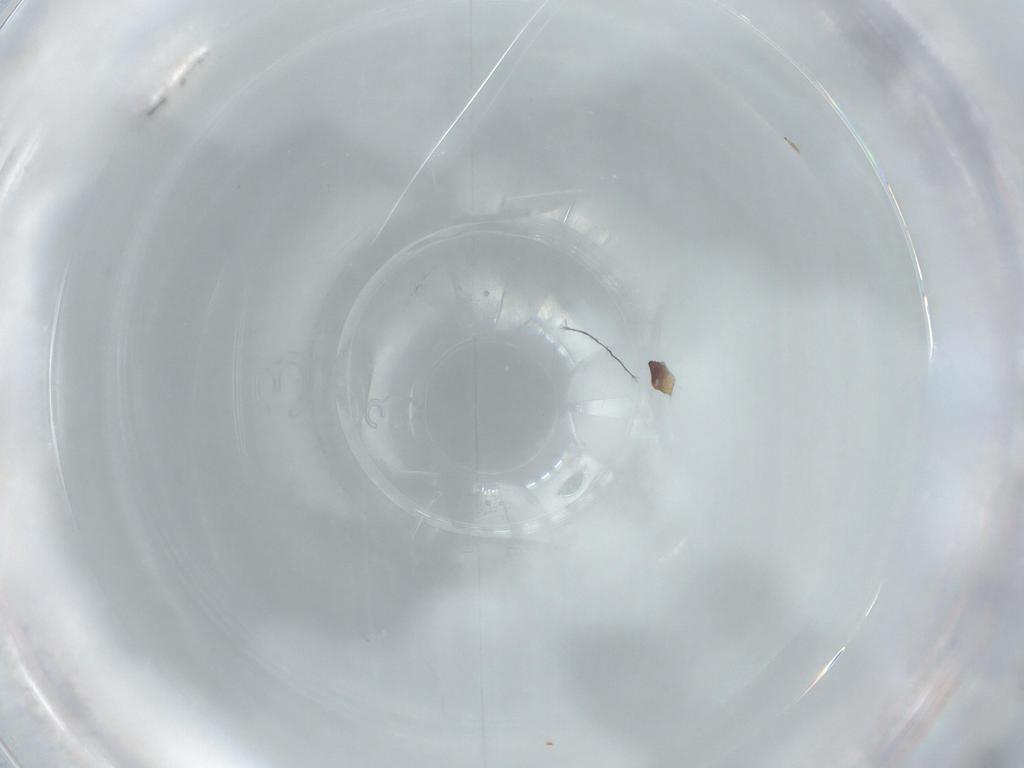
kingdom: Animalia
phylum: Arthropoda
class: Insecta
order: Thysanoptera
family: Phlaeothripidae
